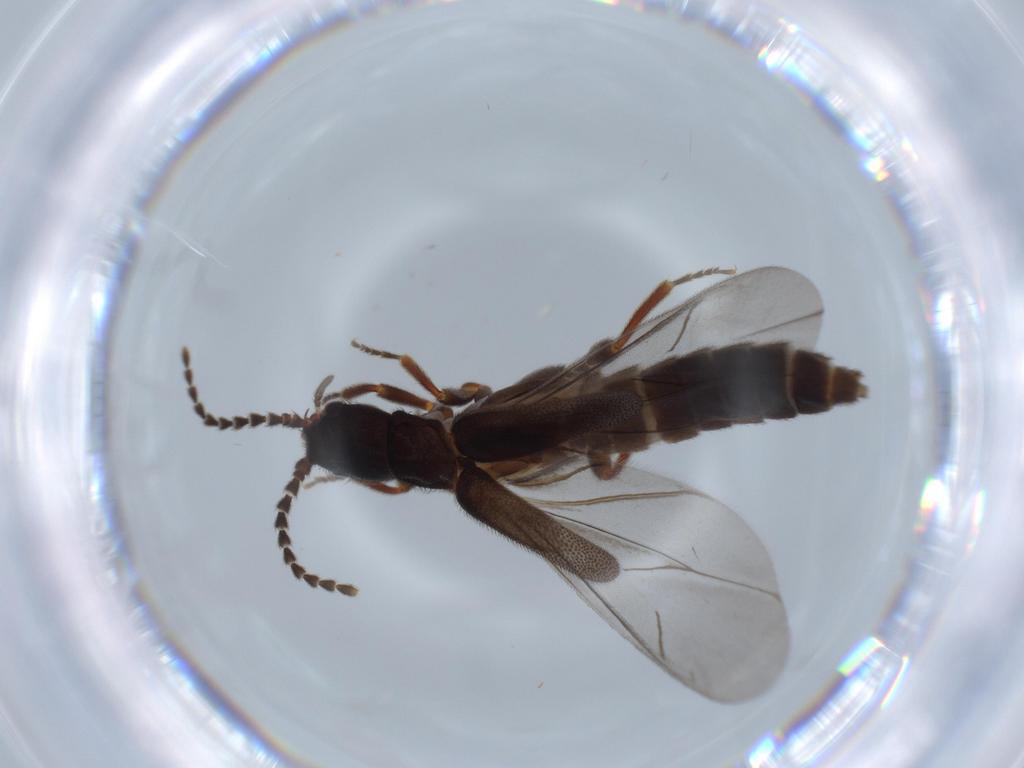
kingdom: Animalia
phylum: Arthropoda
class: Insecta
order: Coleoptera
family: Omethidae
